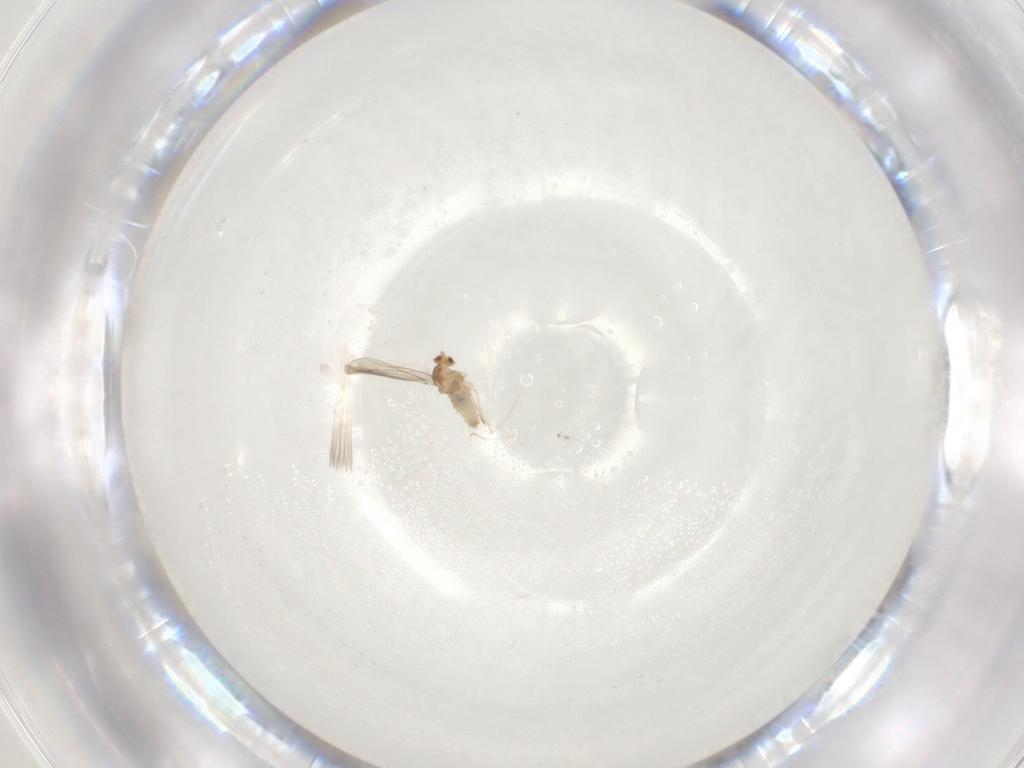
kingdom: Animalia
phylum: Arthropoda
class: Insecta
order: Diptera
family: Cecidomyiidae
